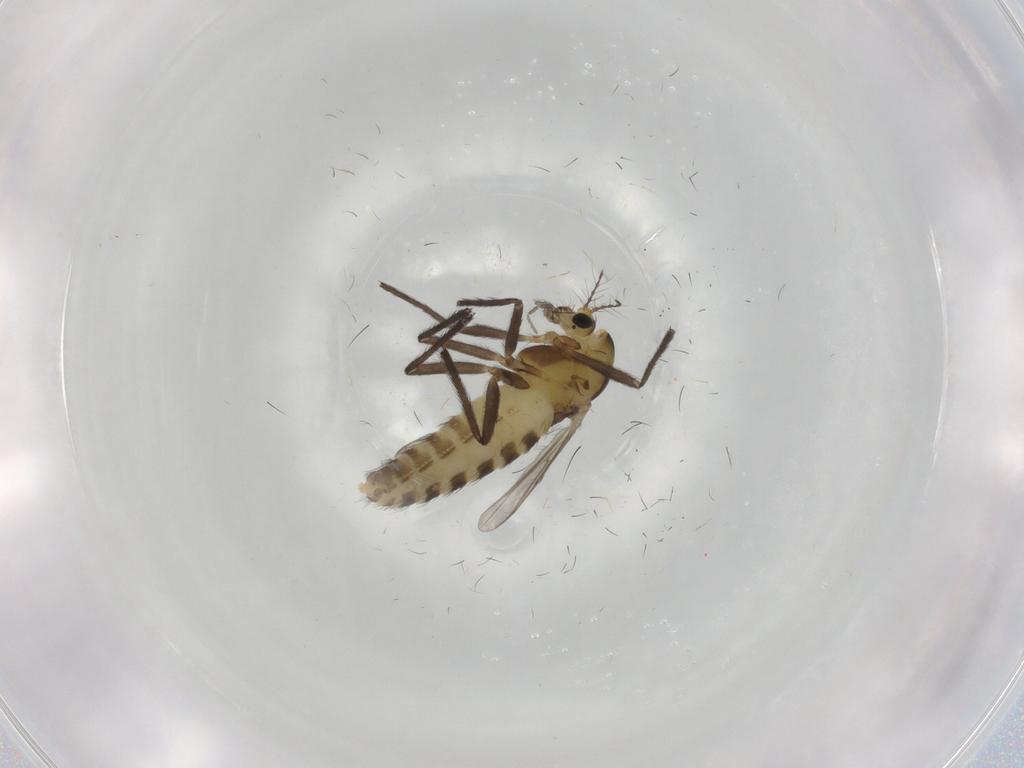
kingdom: Animalia
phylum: Arthropoda
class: Insecta
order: Diptera
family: Chironomidae
